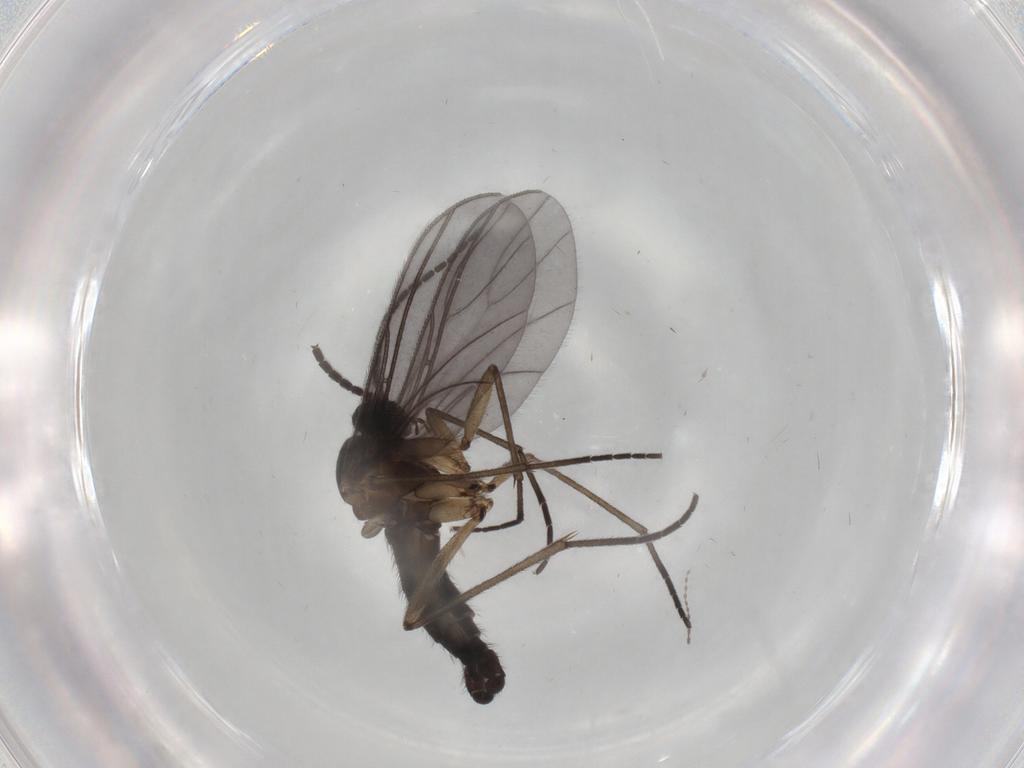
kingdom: Animalia
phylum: Arthropoda
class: Insecta
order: Diptera
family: Sciaridae
